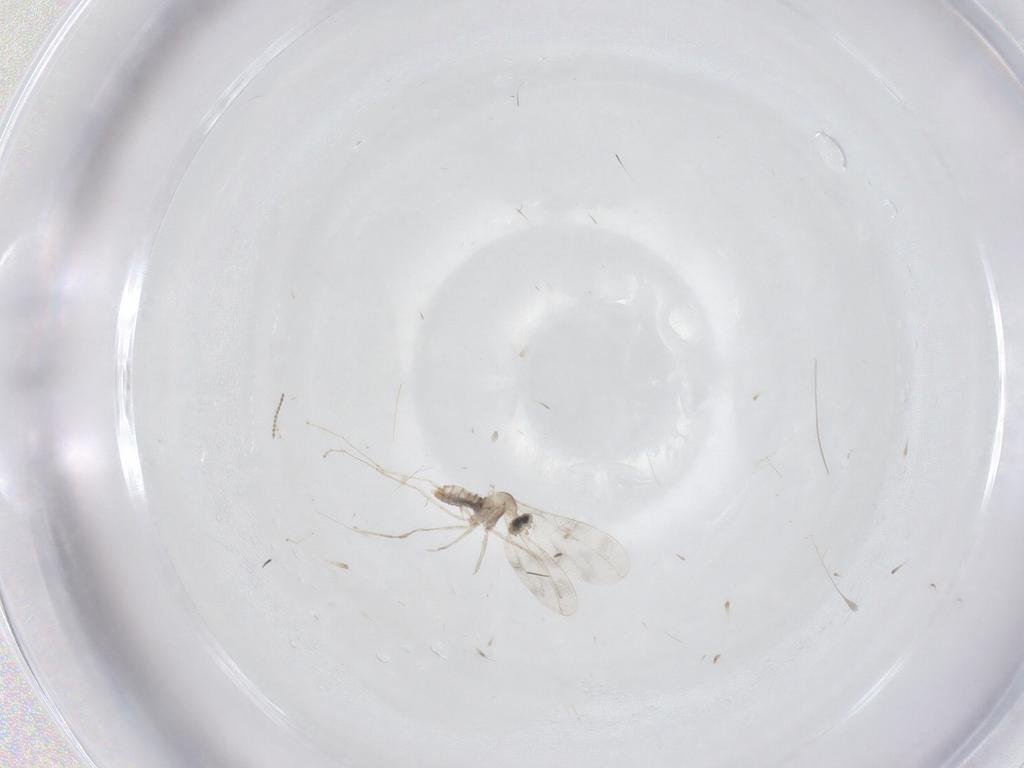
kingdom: Animalia
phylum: Arthropoda
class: Insecta
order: Diptera
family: Cecidomyiidae
